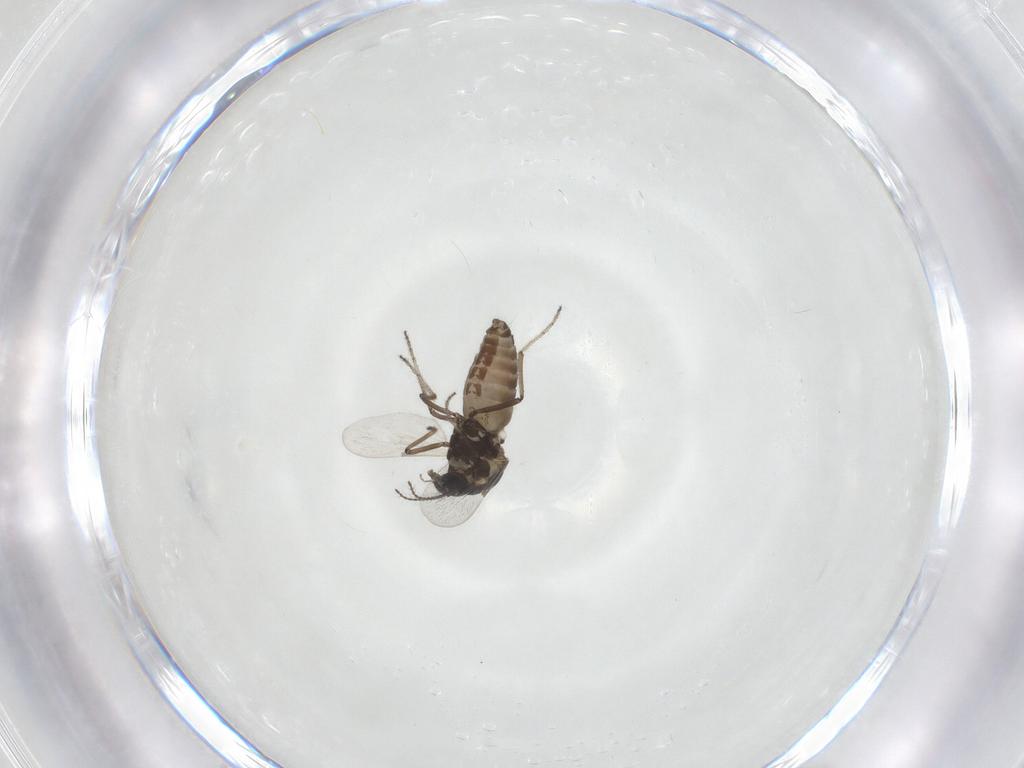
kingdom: Animalia
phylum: Arthropoda
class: Insecta
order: Diptera
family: Ceratopogonidae
